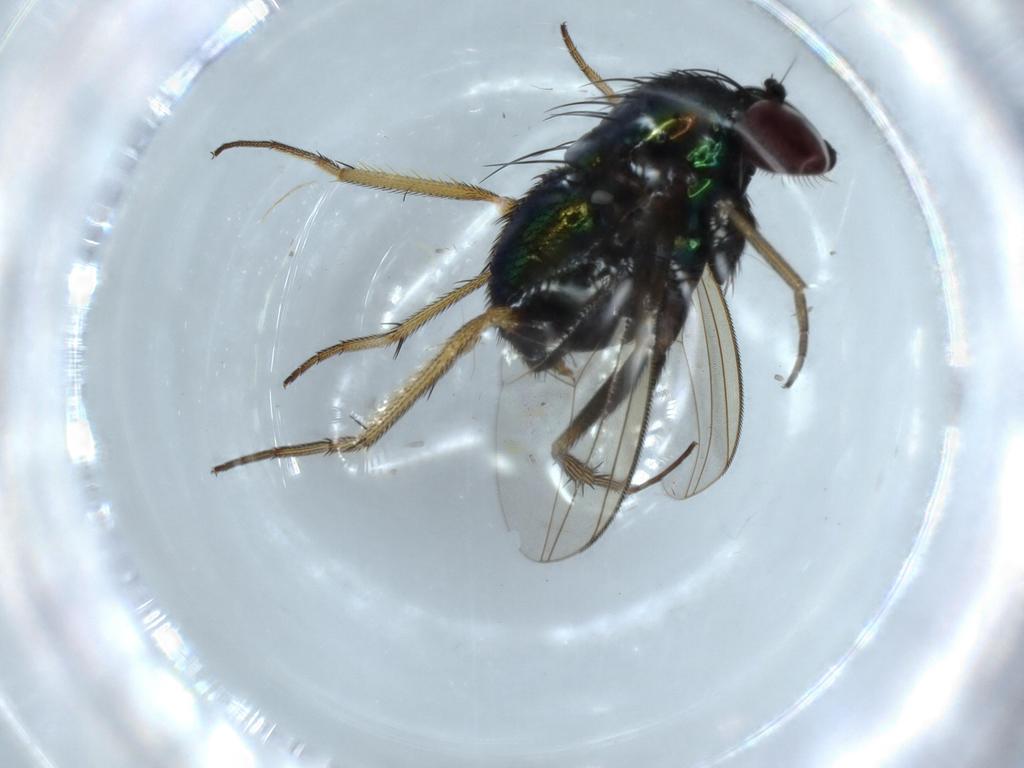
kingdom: Animalia
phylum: Arthropoda
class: Insecta
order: Diptera
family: Dolichopodidae
